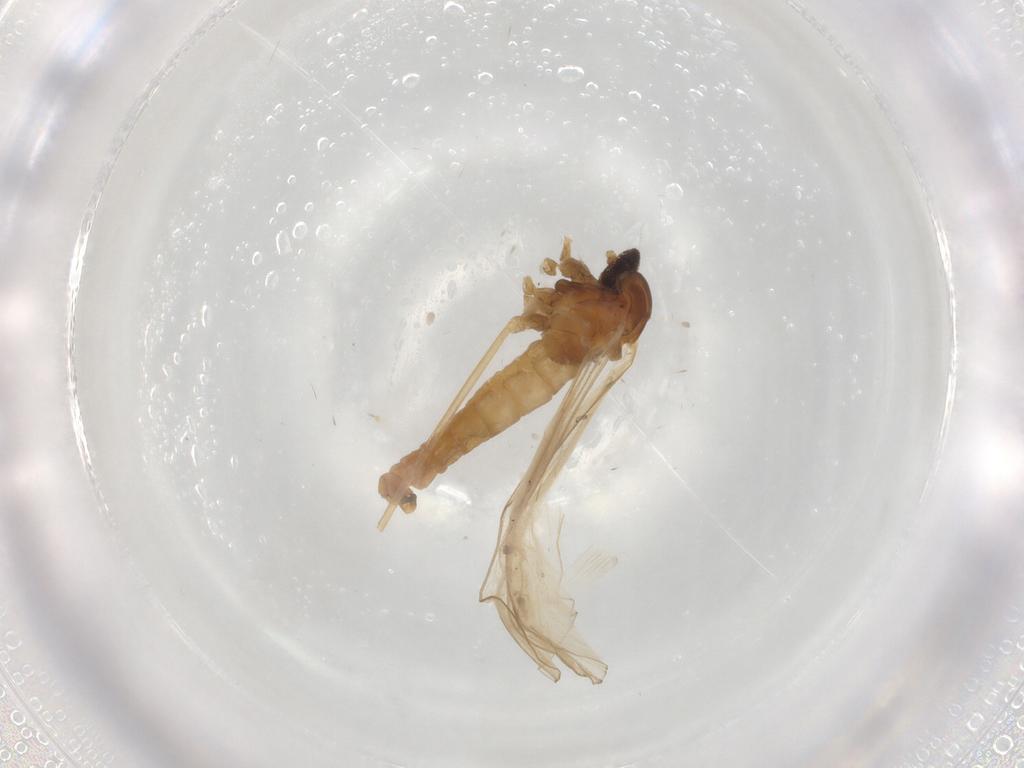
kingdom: Animalia
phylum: Arthropoda
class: Insecta
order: Diptera
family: Cecidomyiidae
